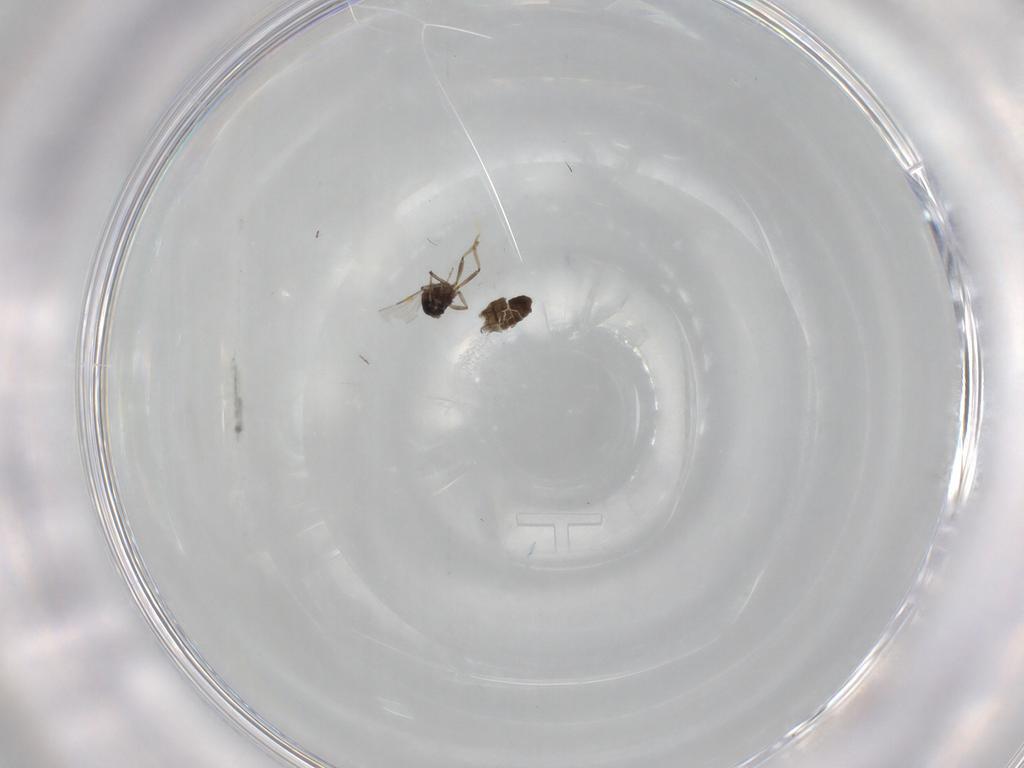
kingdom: Animalia
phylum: Arthropoda
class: Insecta
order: Diptera
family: Ceratopogonidae
